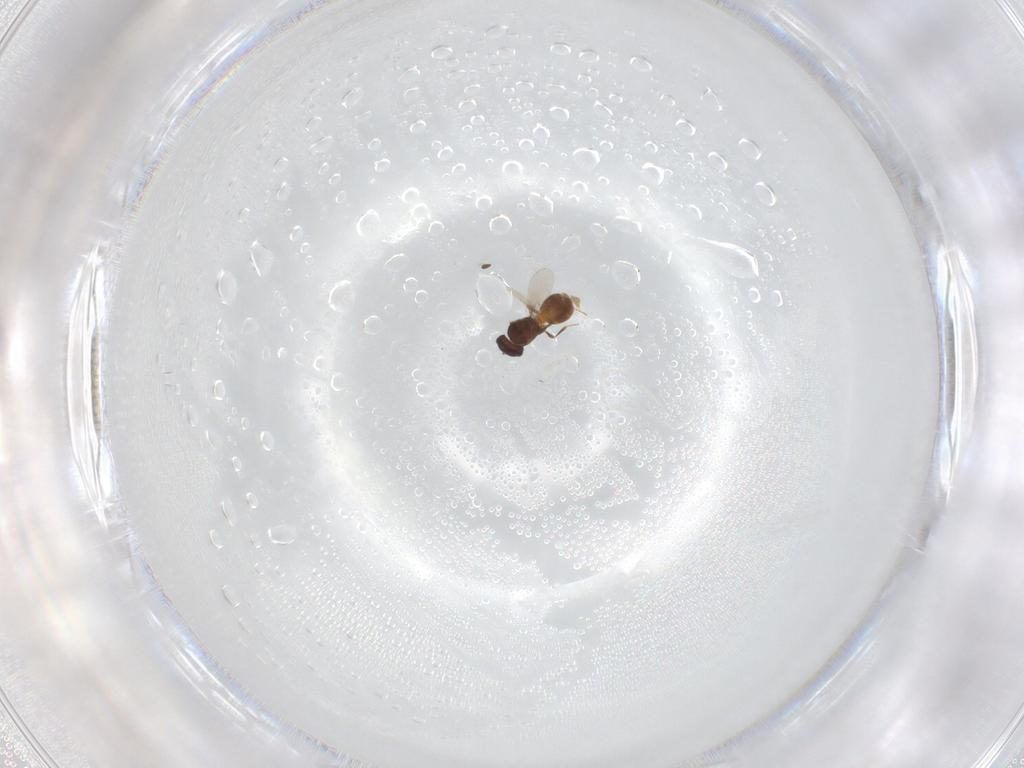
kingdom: Animalia
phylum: Arthropoda
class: Insecta
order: Hymenoptera
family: Scelionidae
